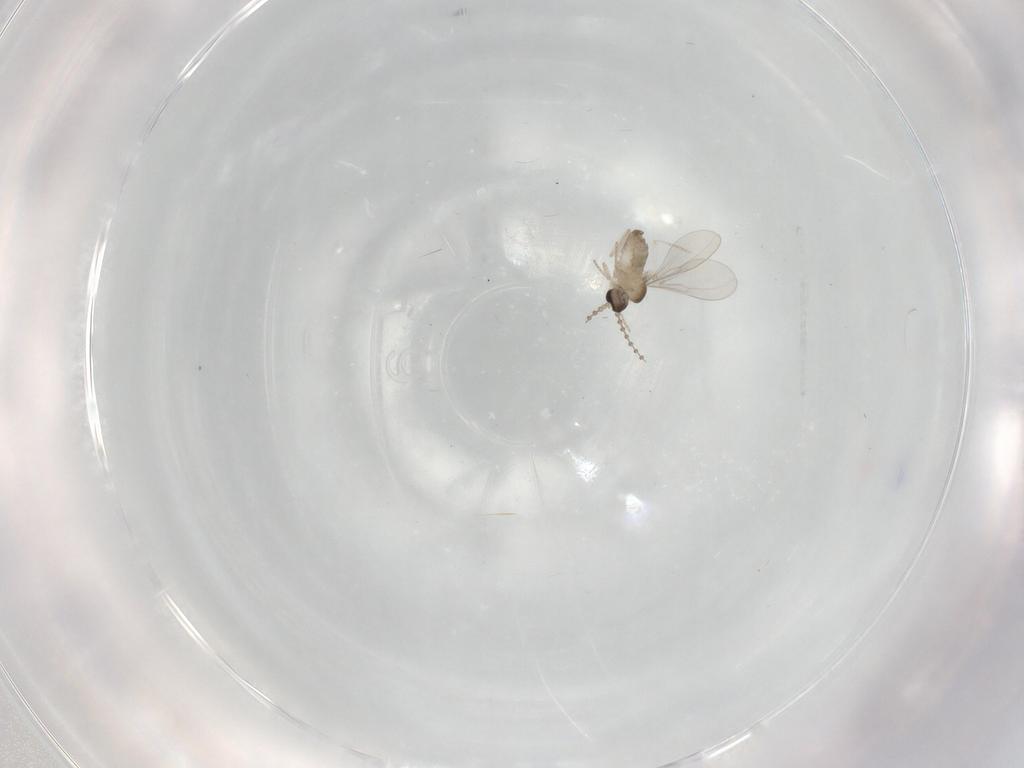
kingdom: Animalia
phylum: Arthropoda
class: Insecta
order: Diptera
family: Cecidomyiidae
